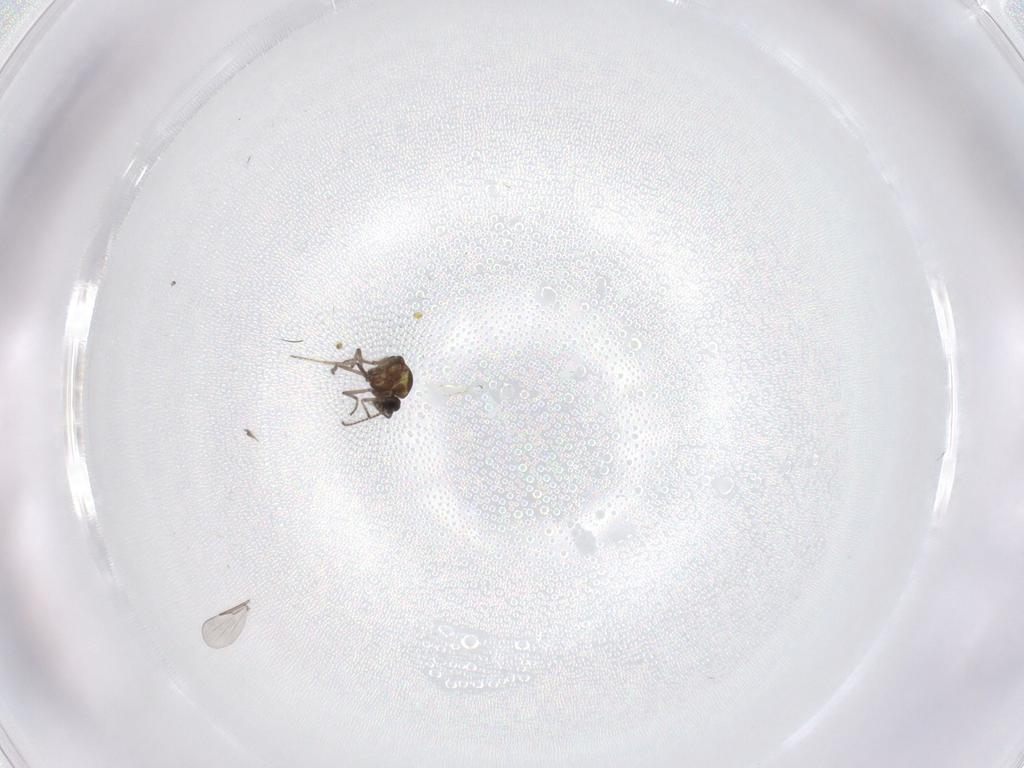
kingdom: Animalia
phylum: Arthropoda
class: Insecta
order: Diptera
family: Ceratopogonidae
